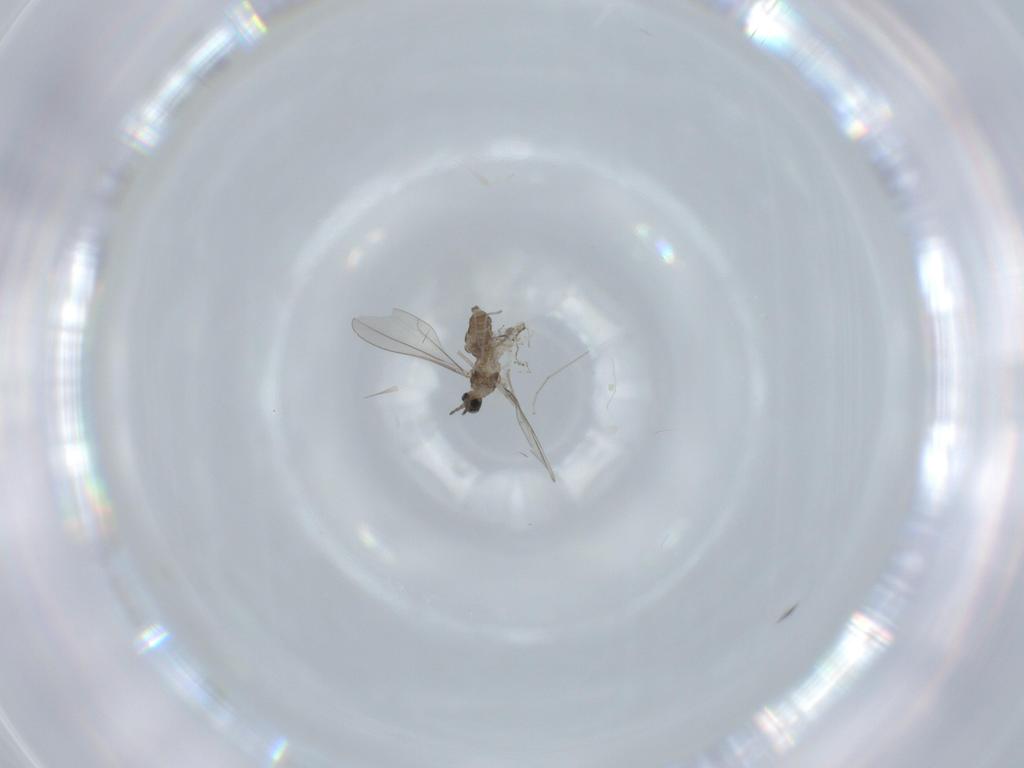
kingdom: Animalia
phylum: Arthropoda
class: Insecta
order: Diptera
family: Cecidomyiidae
